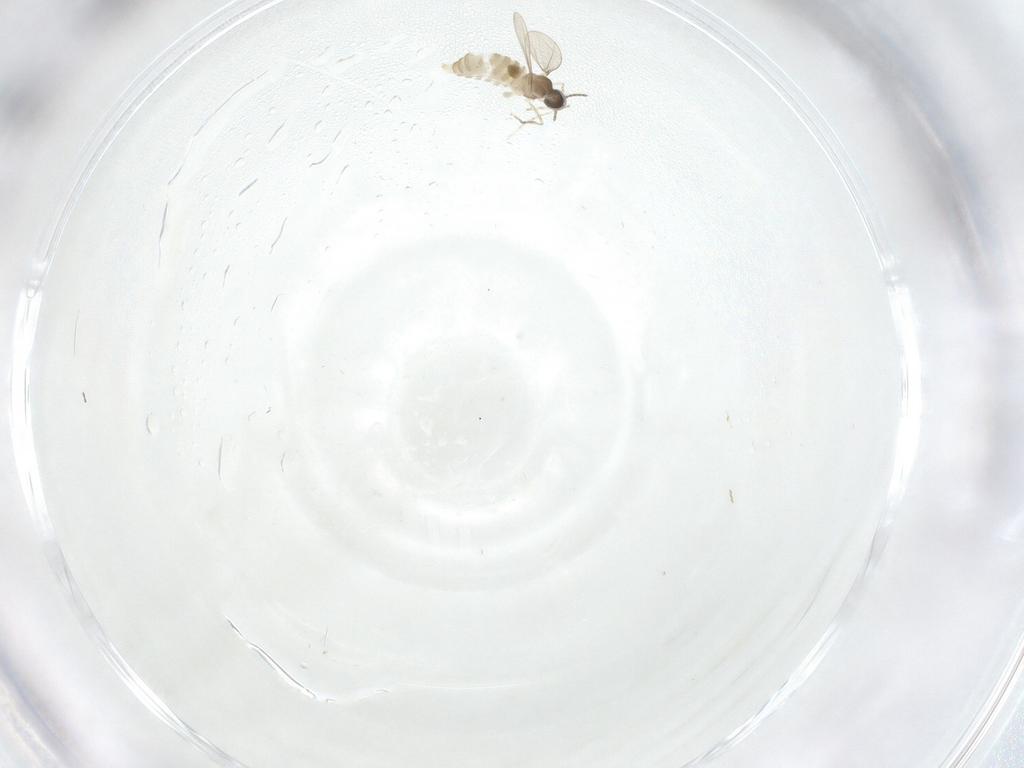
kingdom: Animalia
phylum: Arthropoda
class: Insecta
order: Diptera
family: Cecidomyiidae
